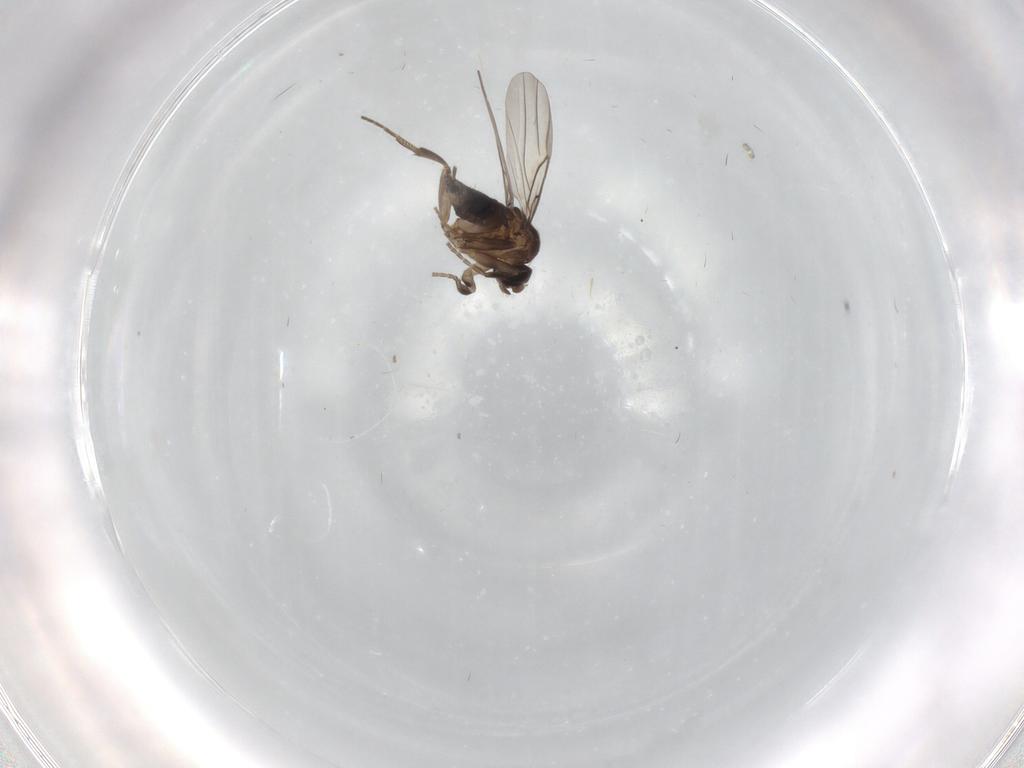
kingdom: Animalia
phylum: Arthropoda
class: Insecta
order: Diptera
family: Phoridae
